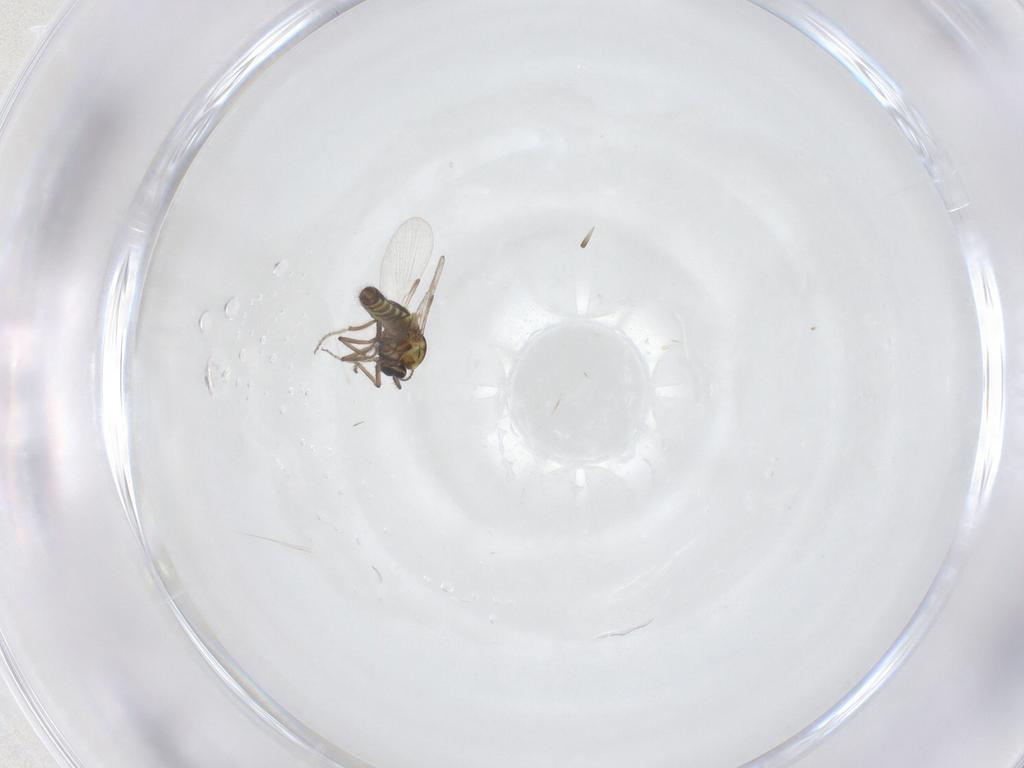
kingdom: Animalia
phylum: Arthropoda
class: Insecta
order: Diptera
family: Ceratopogonidae
